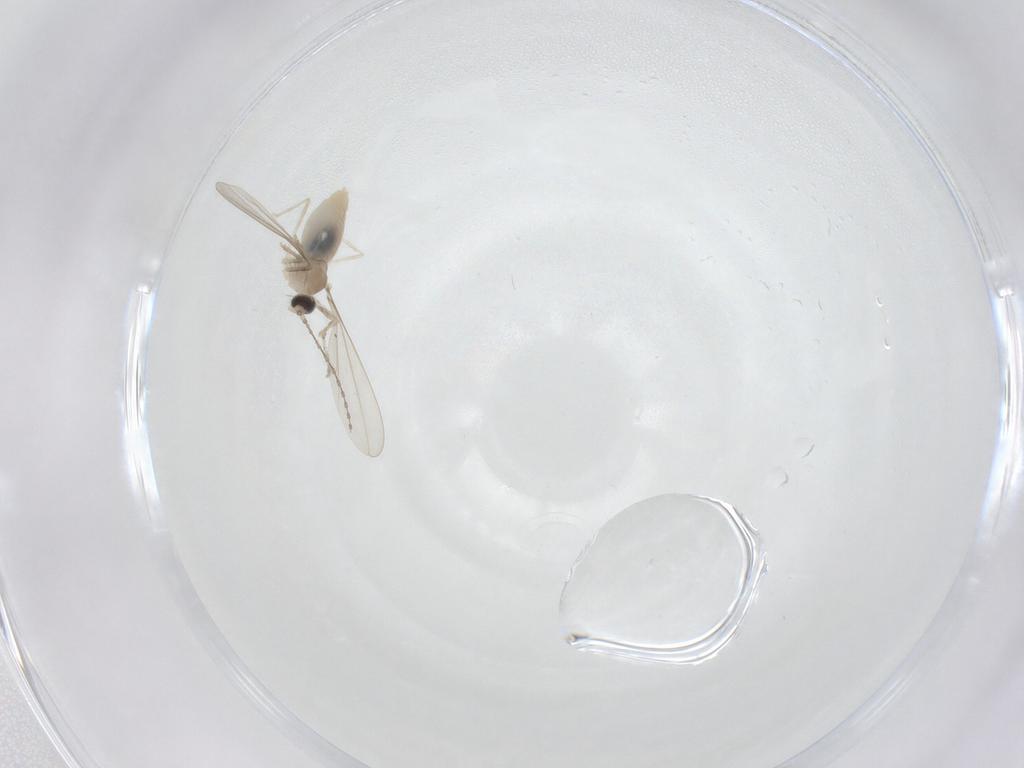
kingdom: Animalia
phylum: Arthropoda
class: Insecta
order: Diptera
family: Cecidomyiidae
